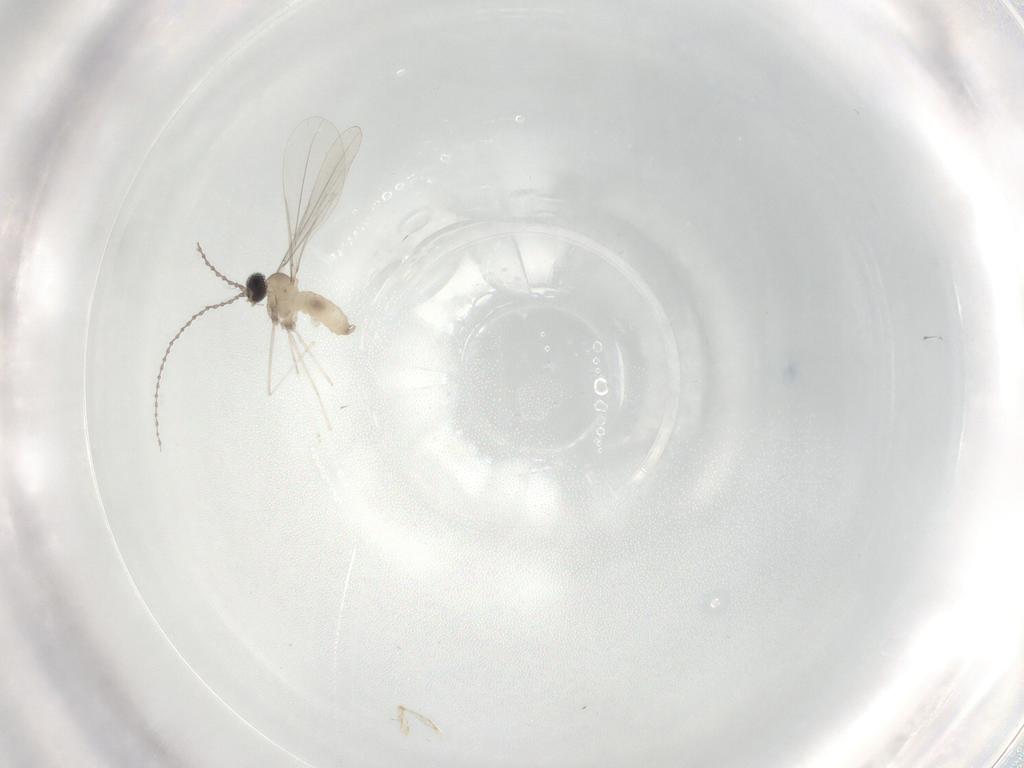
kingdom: Animalia
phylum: Arthropoda
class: Insecta
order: Diptera
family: Cecidomyiidae
